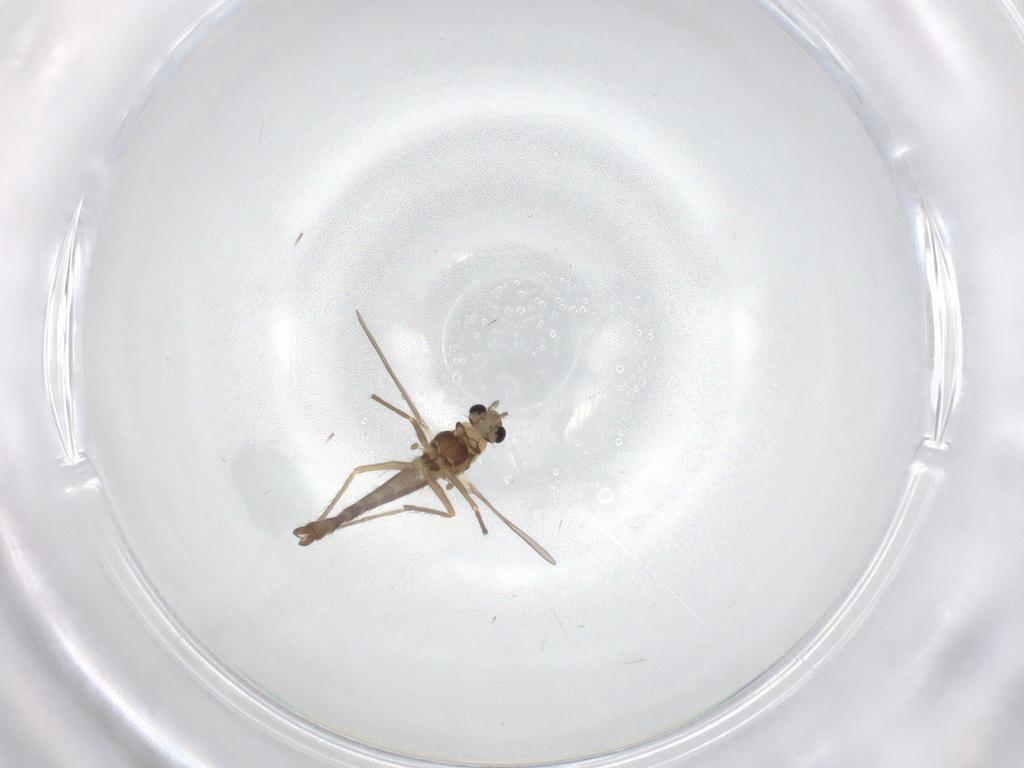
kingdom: Animalia
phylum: Arthropoda
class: Insecta
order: Diptera
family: Chironomidae
